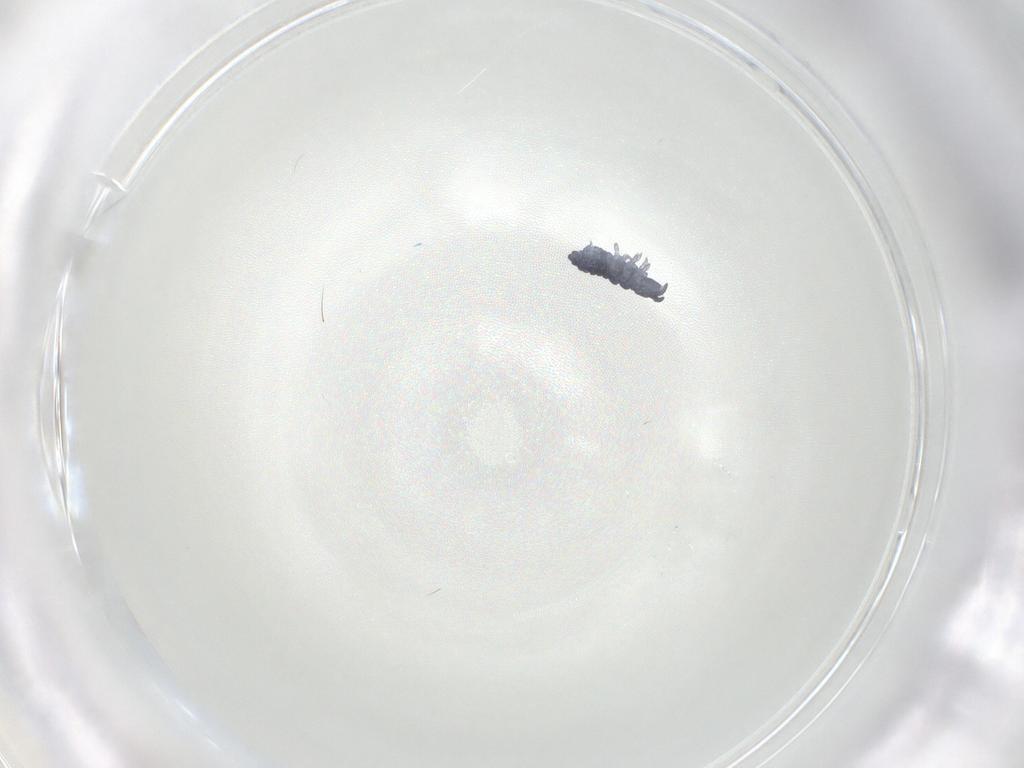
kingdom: Animalia
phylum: Arthropoda
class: Collembola
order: Poduromorpha
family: Hypogastruridae
